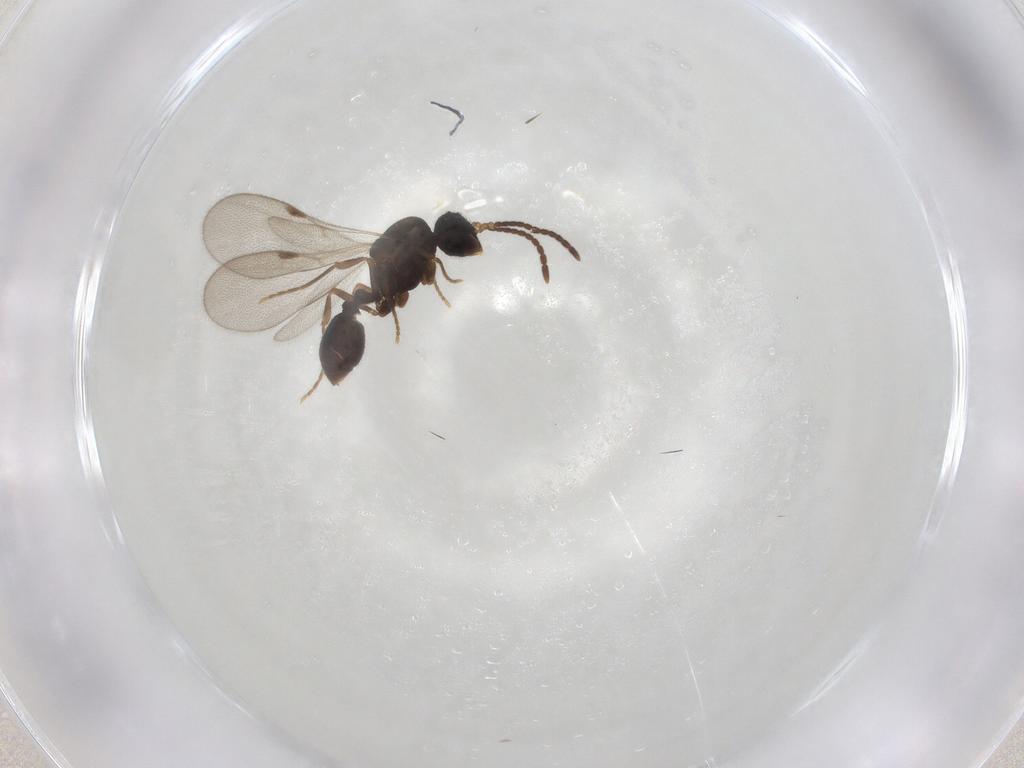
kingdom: Animalia
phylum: Arthropoda
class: Insecta
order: Hymenoptera
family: Formicidae
